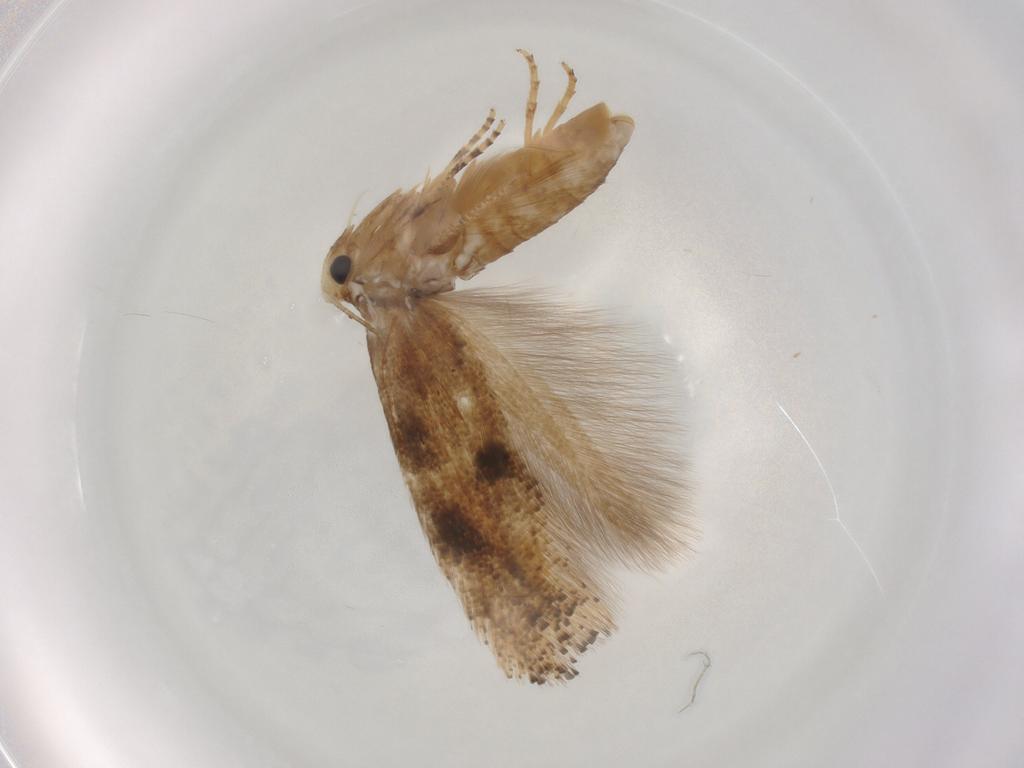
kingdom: Animalia
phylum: Arthropoda
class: Insecta
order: Lepidoptera
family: Bucculatricidae
